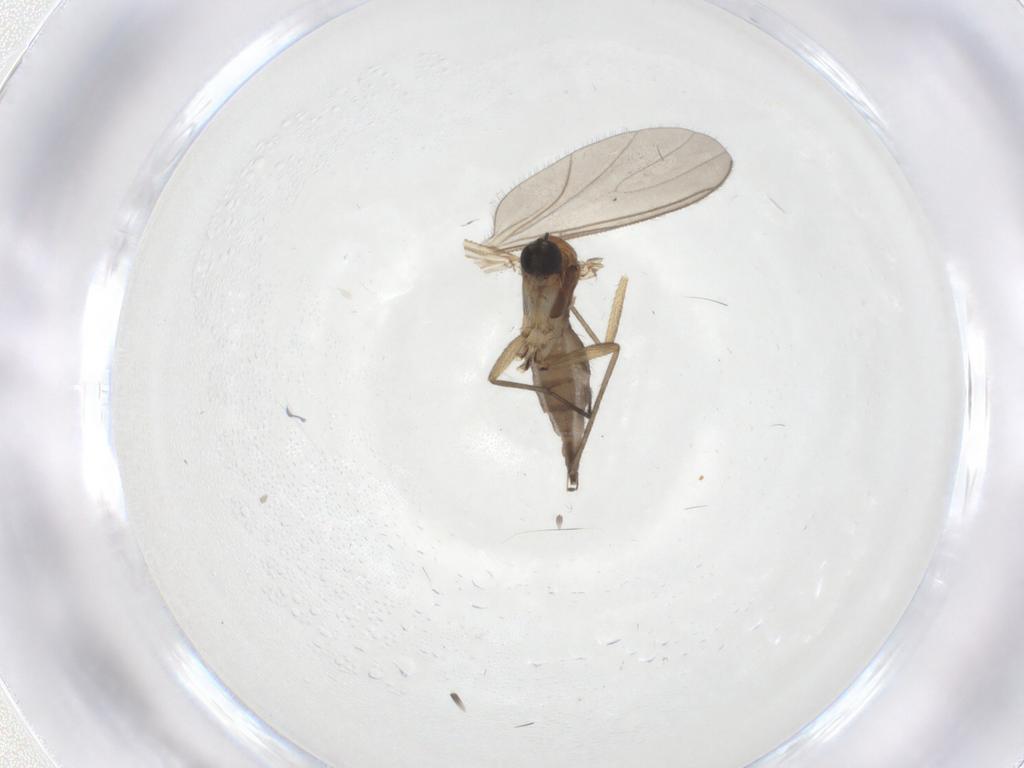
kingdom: Animalia
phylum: Arthropoda
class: Insecta
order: Diptera
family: Sciaridae
